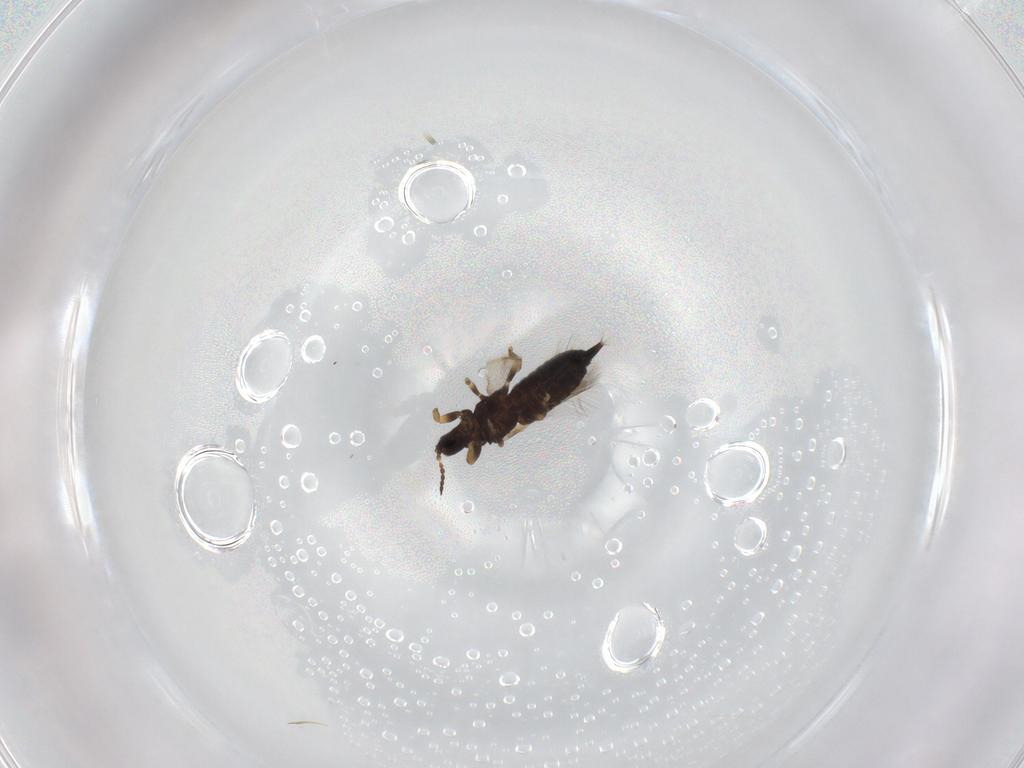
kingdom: Animalia
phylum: Arthropoda
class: Insecta
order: Thysanoptera
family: Phlaeothripidae
